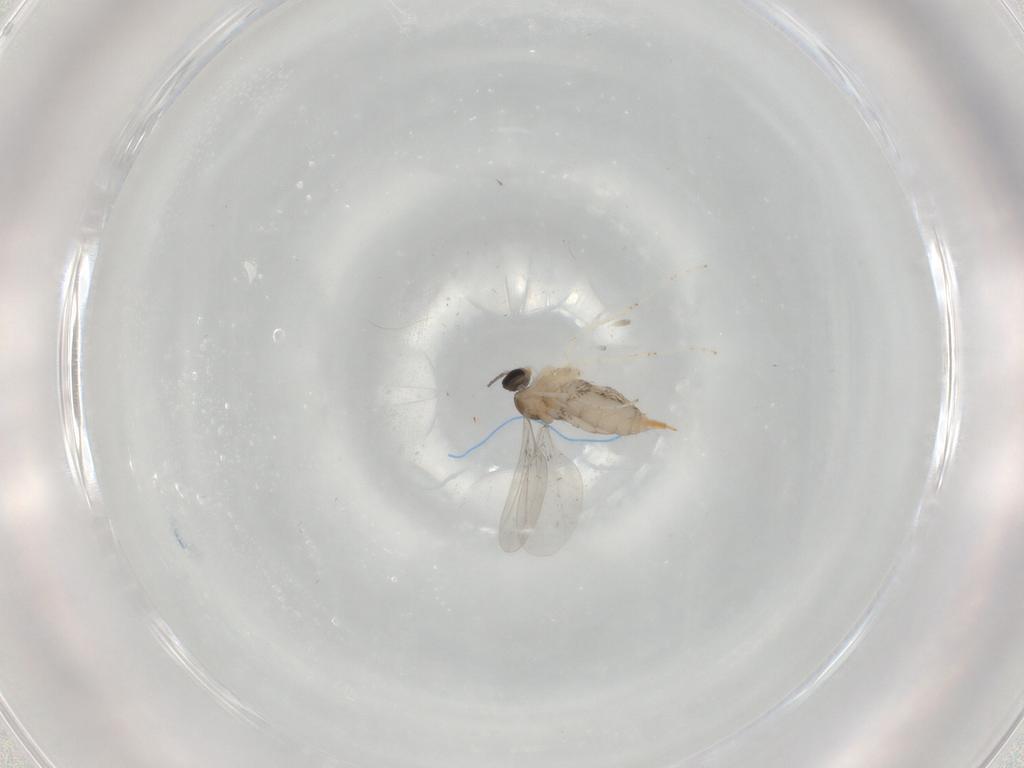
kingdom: Animalia
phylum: Arthropoda
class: Insecta
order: Diptera
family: Cecidomyiidae
